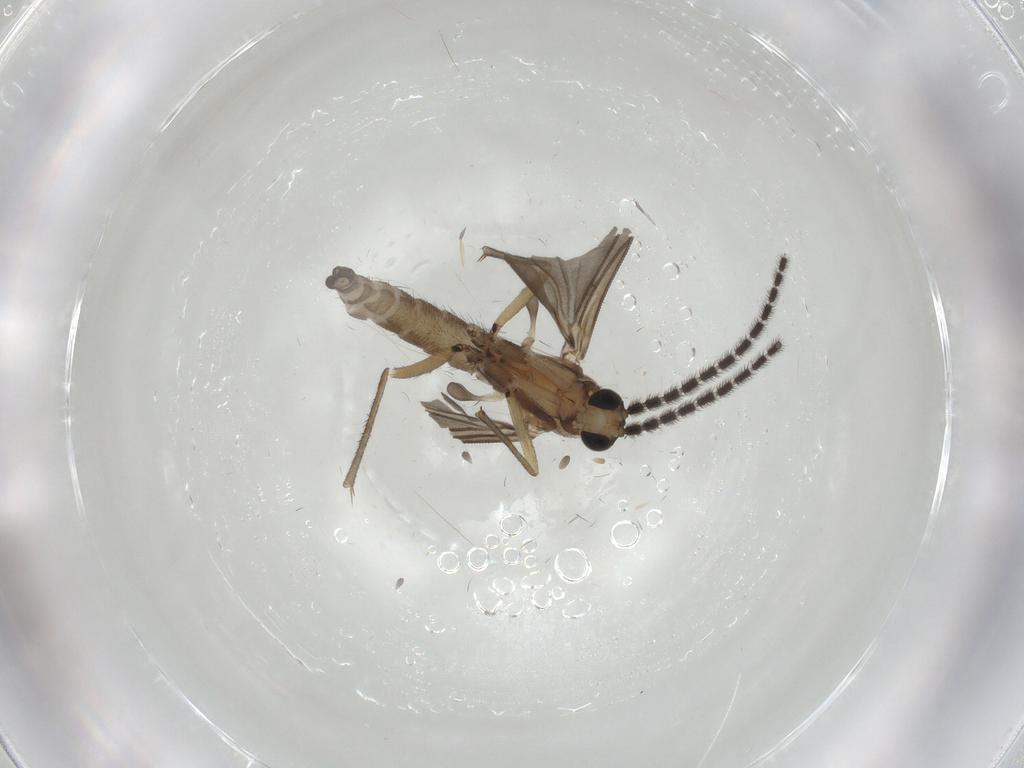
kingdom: Animalia
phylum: Arthropoda
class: Insecta
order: Diptera
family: Sciaridae
